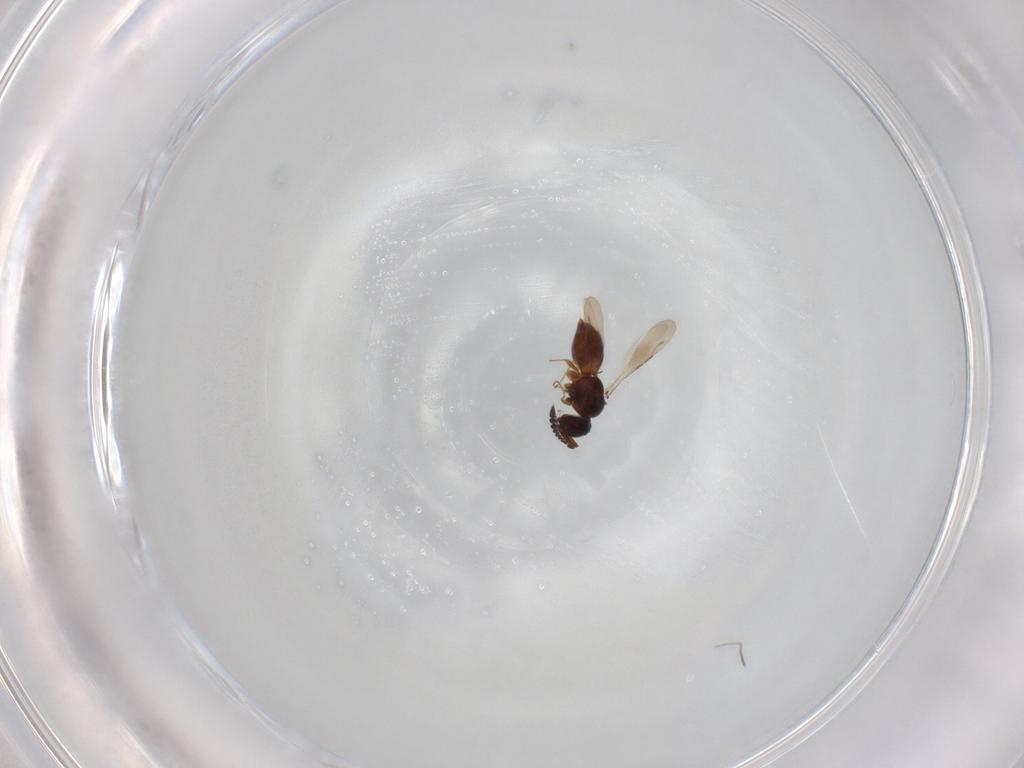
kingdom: Animalia
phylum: Arthropoda
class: Insecta
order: Hymenoptera
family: Ceraphronidae
